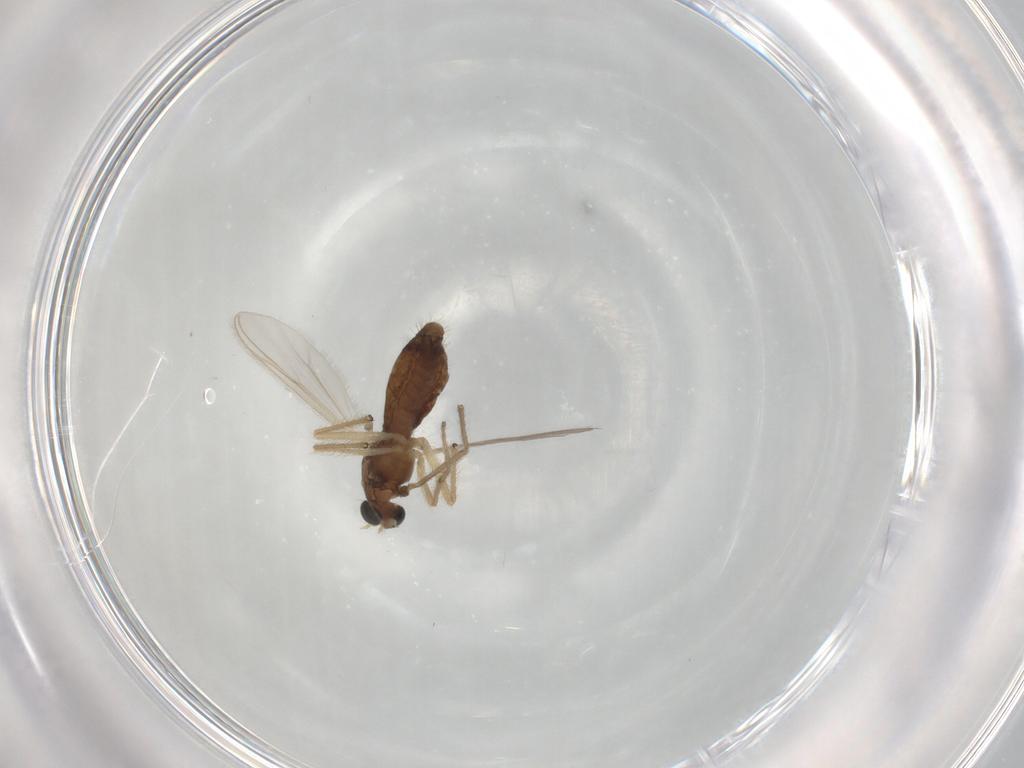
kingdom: Animalia
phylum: Arthropoda
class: Insecta
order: Diptera
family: Chironomidae
